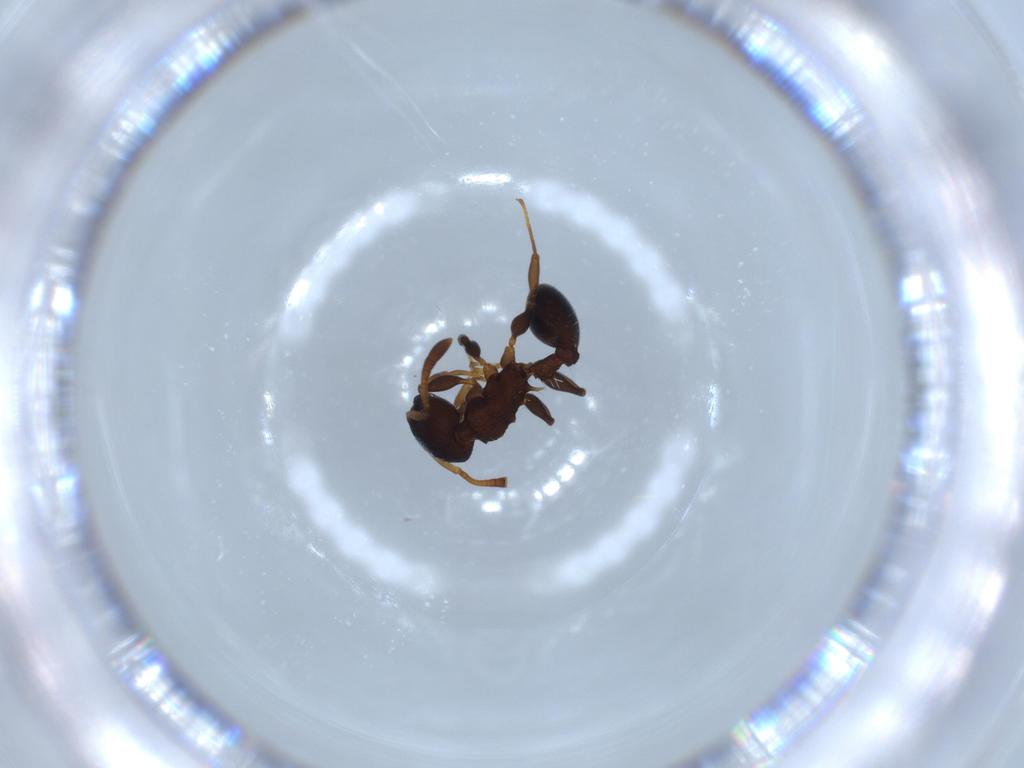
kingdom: Animalia
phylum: Arthropoda
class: Insecta
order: Hymenoptera
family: Formicidae
